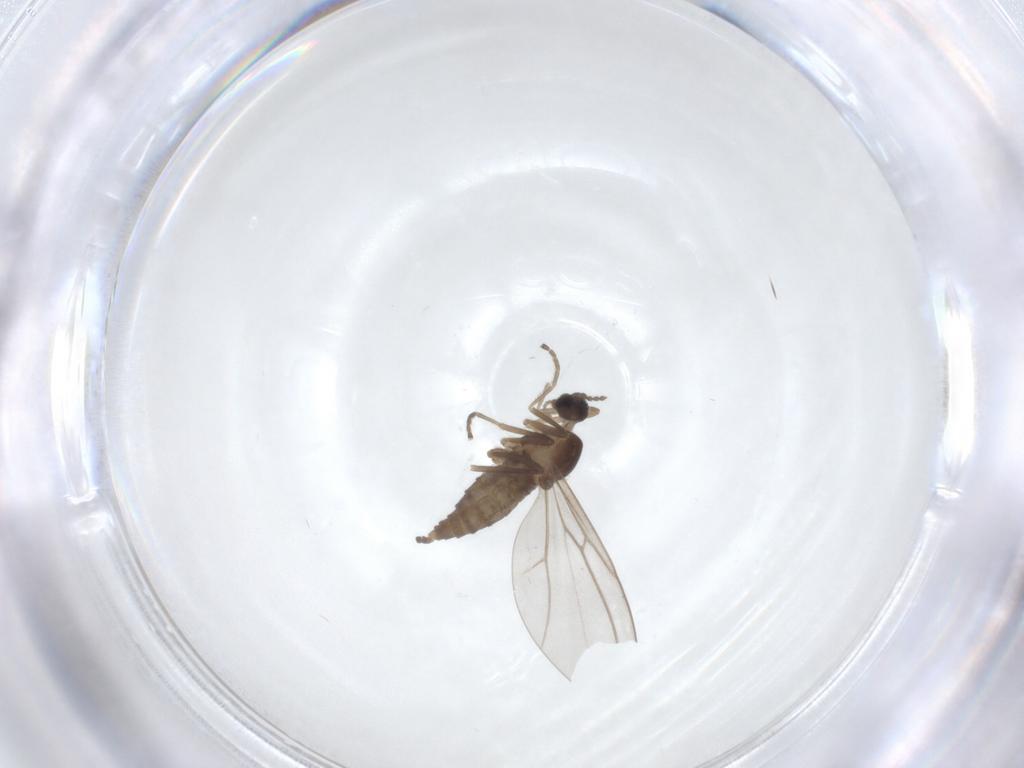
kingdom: Animalia
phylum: Arthropoda
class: Insecta
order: Diptera
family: Cecidomyiidae
